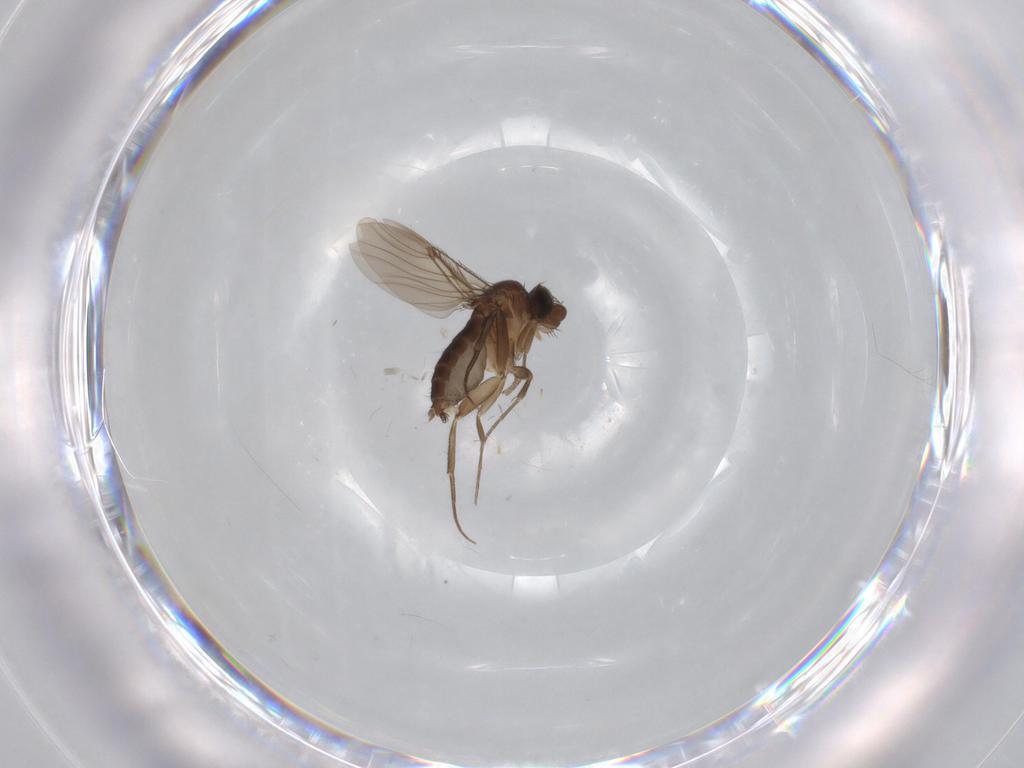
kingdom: Animalia
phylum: Arthropoda
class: Insecta
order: Diptera
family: Phoridae
